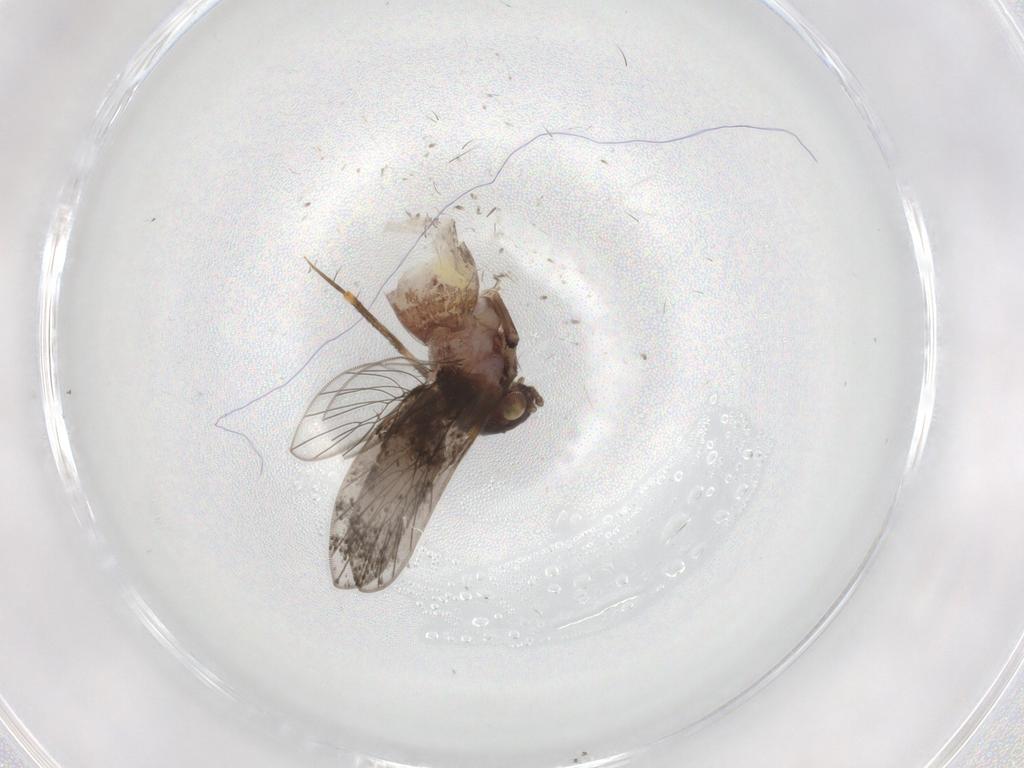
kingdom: Animalia
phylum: Arthropoda
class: Insecta
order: Psocodea
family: Lepidopsocidae
